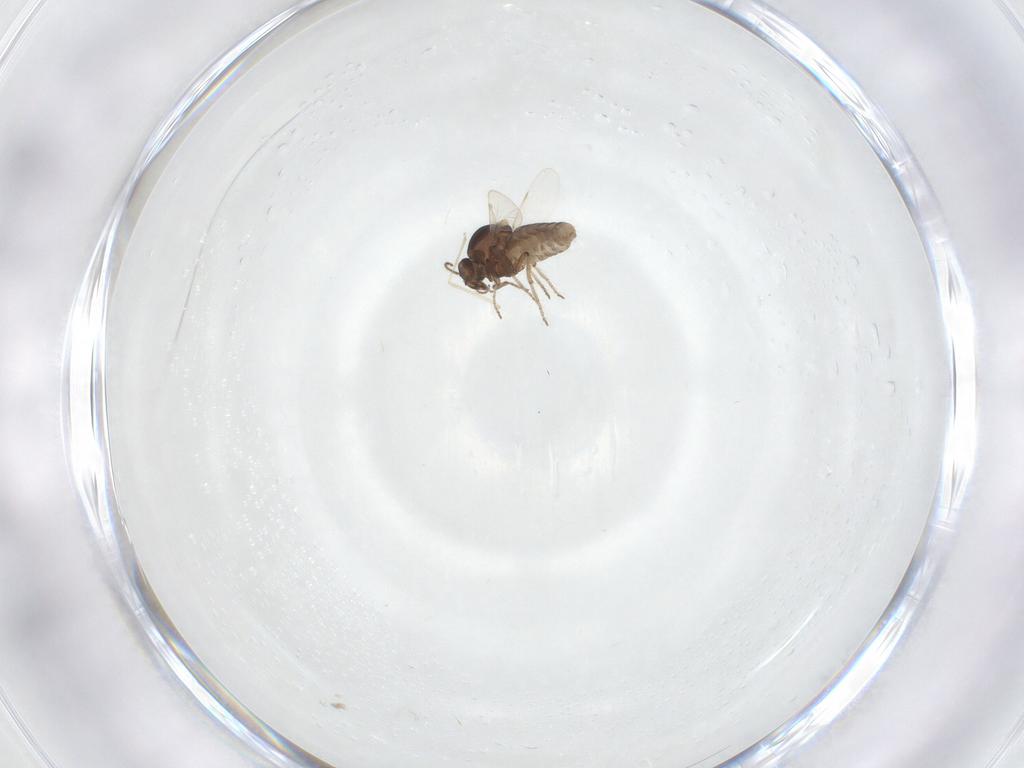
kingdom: Animalia
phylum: Arthropoda
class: Insecta
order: Diptera
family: Ceratopogonidae
